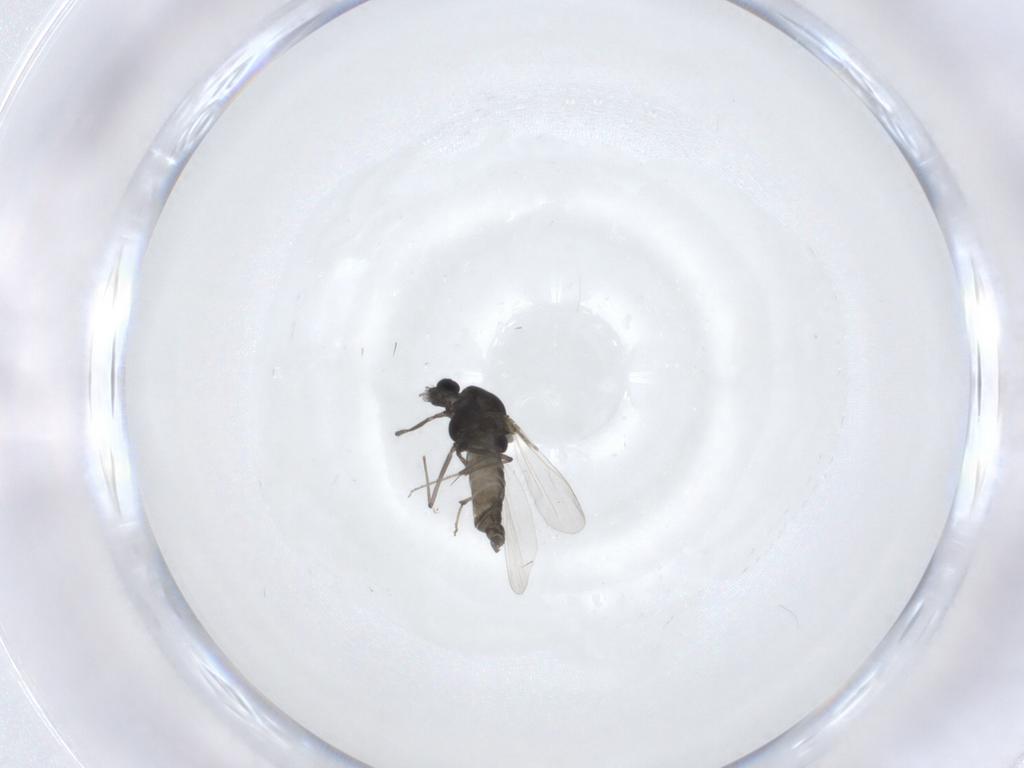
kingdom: Animalia
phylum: Arthropoda
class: Insecta
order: Diptera
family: Chironomidae
